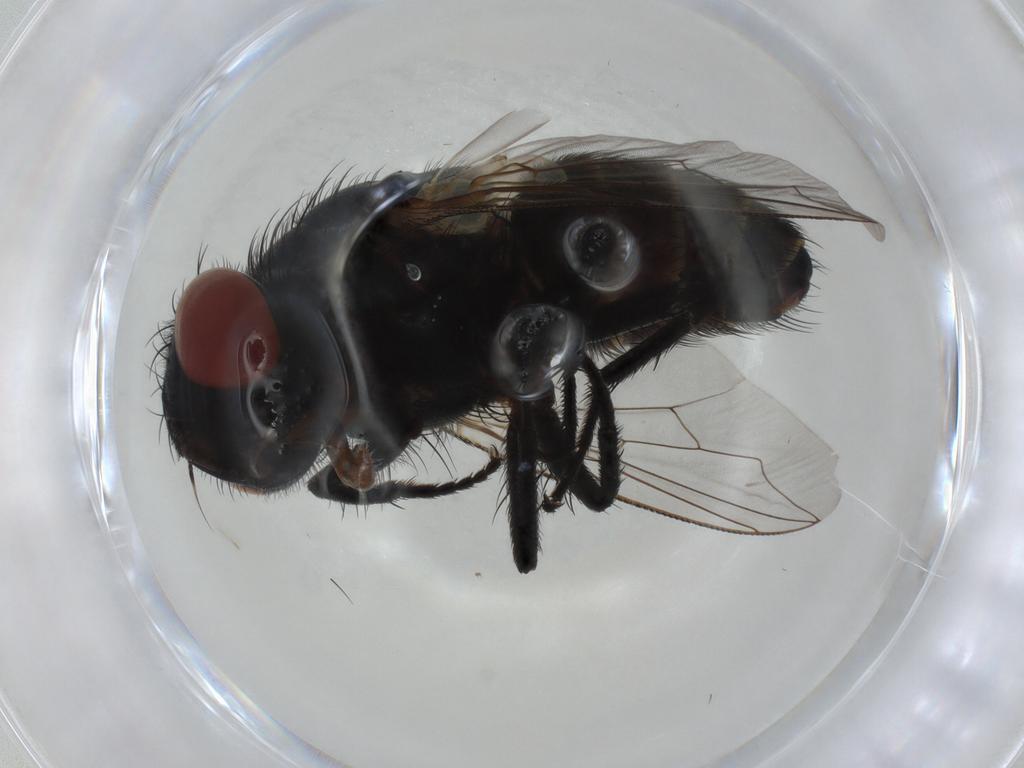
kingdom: Animalia
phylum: Arthropoda
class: Insecta
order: Diptera
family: Sarcophagidae
